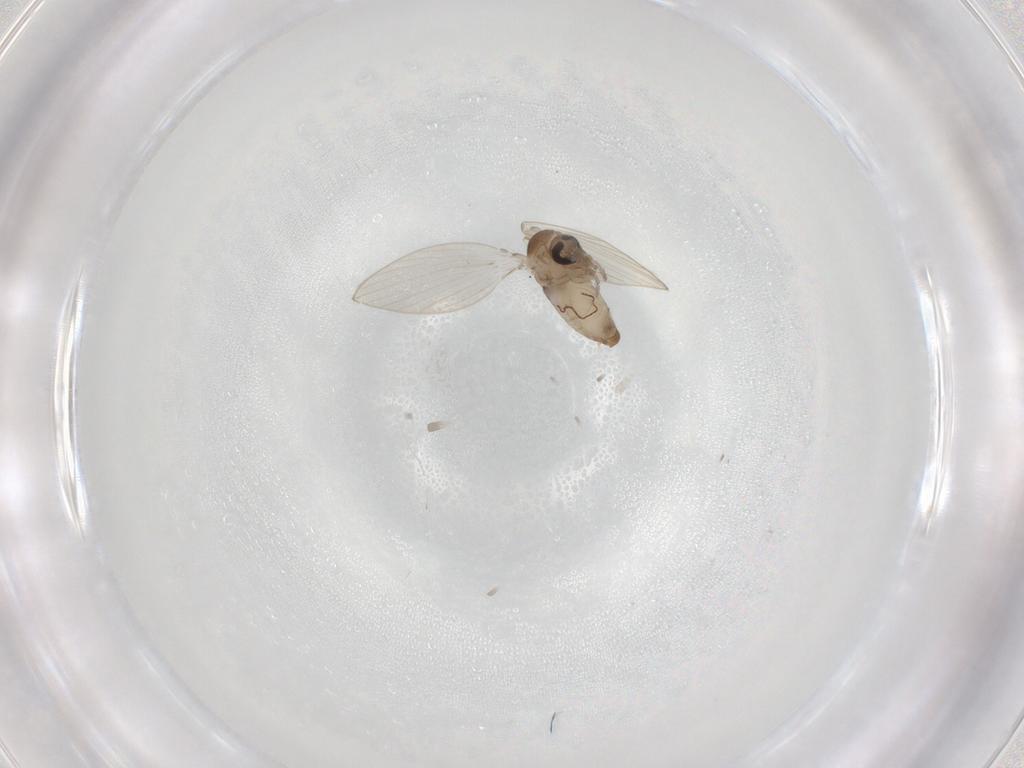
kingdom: Animalia
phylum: Arthropoda
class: Insecta
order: Diptera
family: Psychodidae
